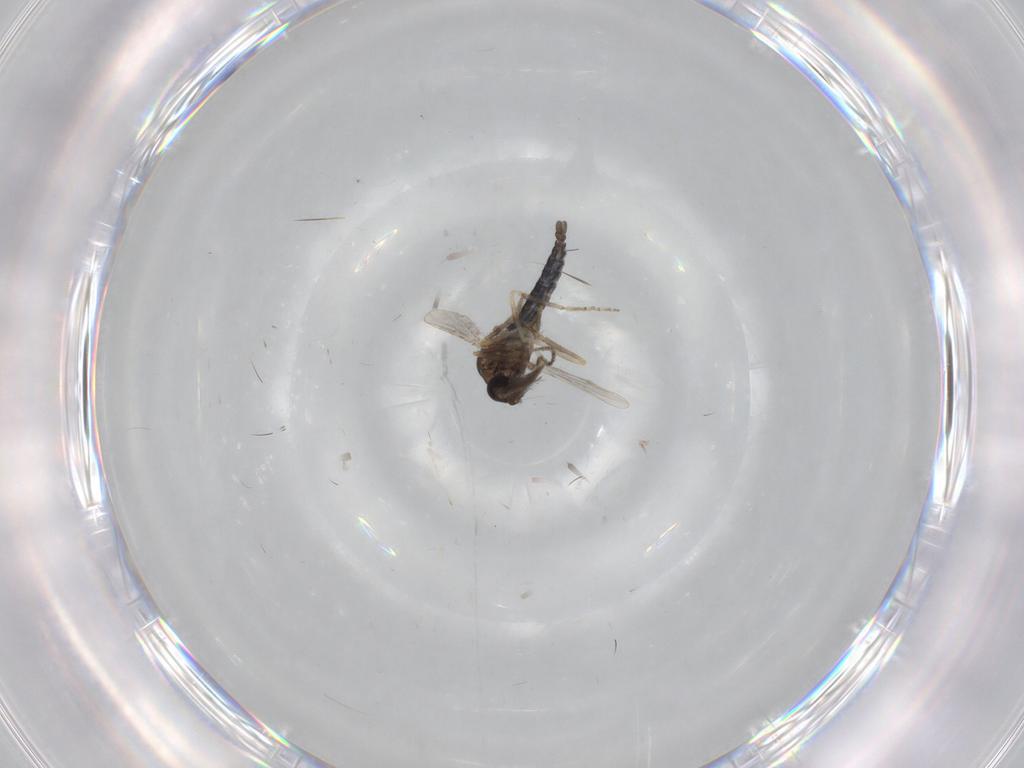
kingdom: Animalia
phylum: Arthropoda
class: Insecta
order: Diptera
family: Ceratopogonidae
